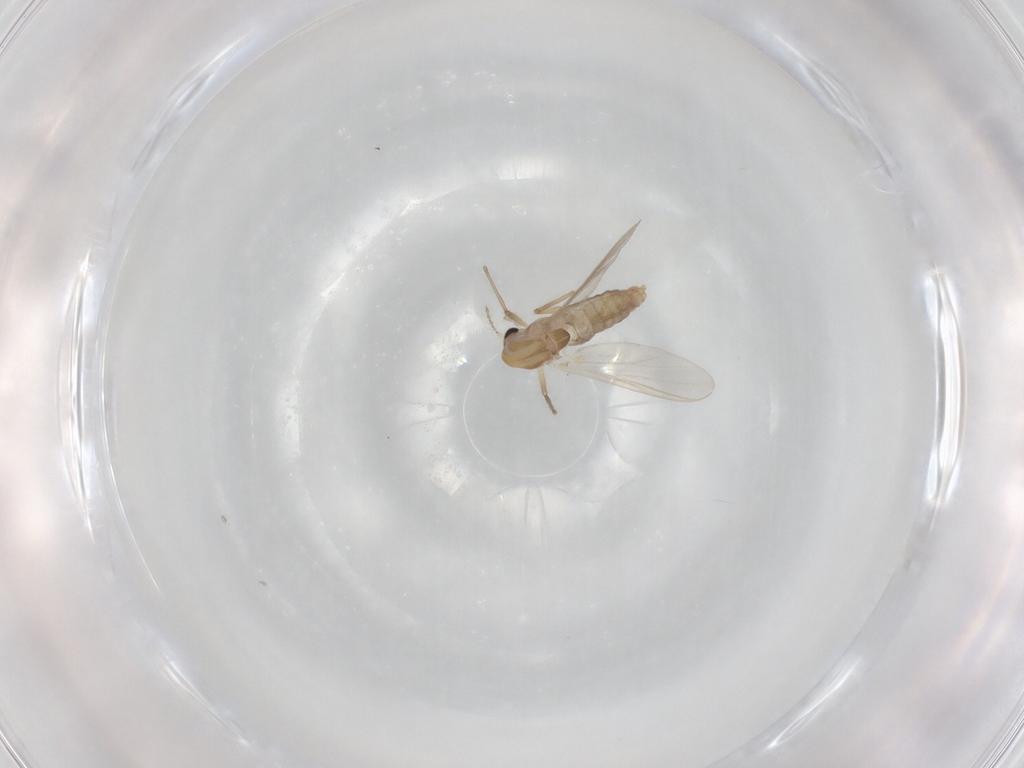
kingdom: Animalia
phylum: Arthropoda
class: Insecta
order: Diptera
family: Chironomidae
